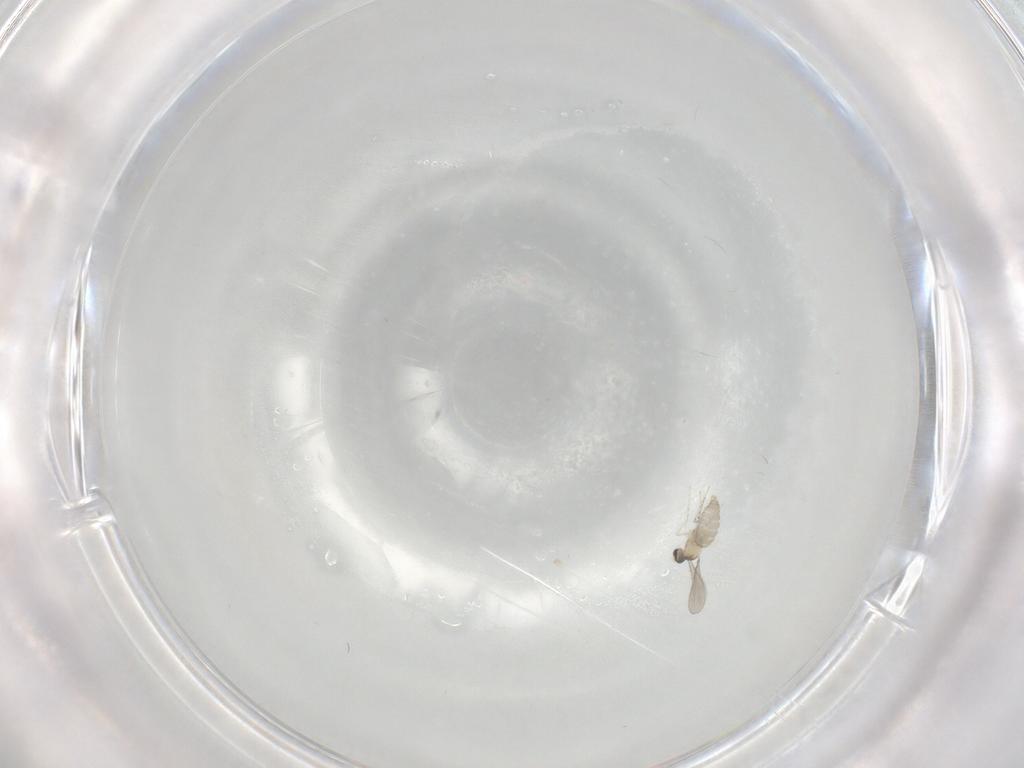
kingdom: Animalia
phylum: Arthropoda
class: Insecta
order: Diptera
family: Cecidomyiidae
